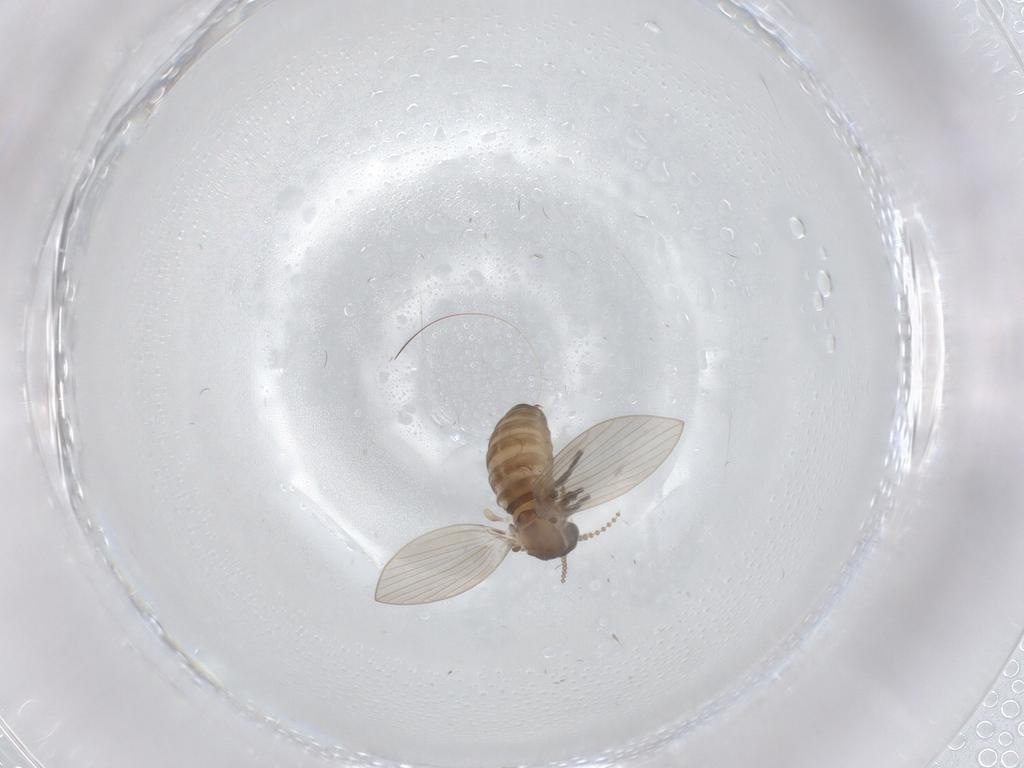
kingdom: Animalia
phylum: Arthropoda
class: Insecta
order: Diptera
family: Psychodidae
